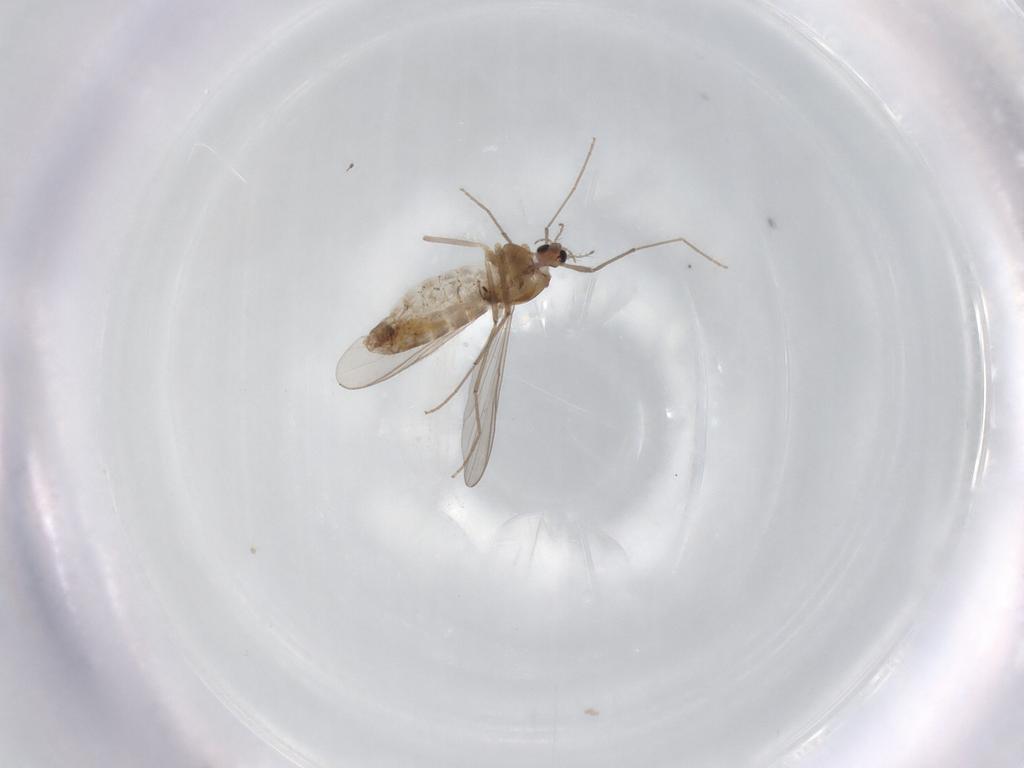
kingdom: Animalia
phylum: Arthropoda
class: Insecta
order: Diptera
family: Chironomidae
